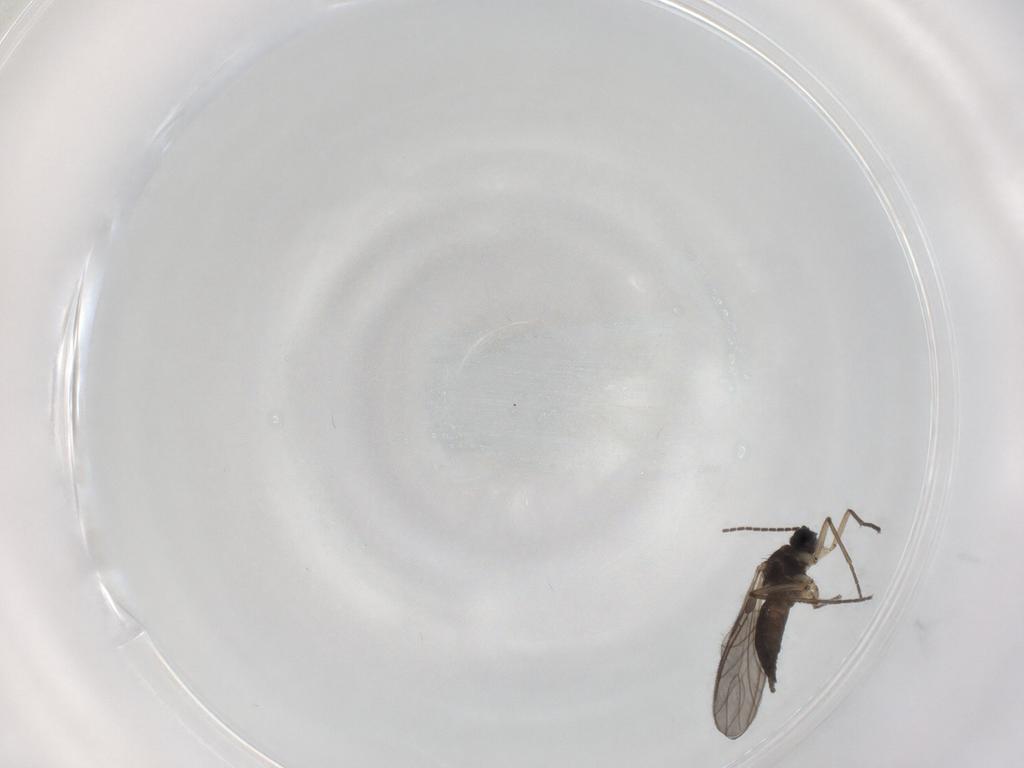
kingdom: Animalia
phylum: Arthropoda
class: Insecta
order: Diptera
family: Sciaridae
